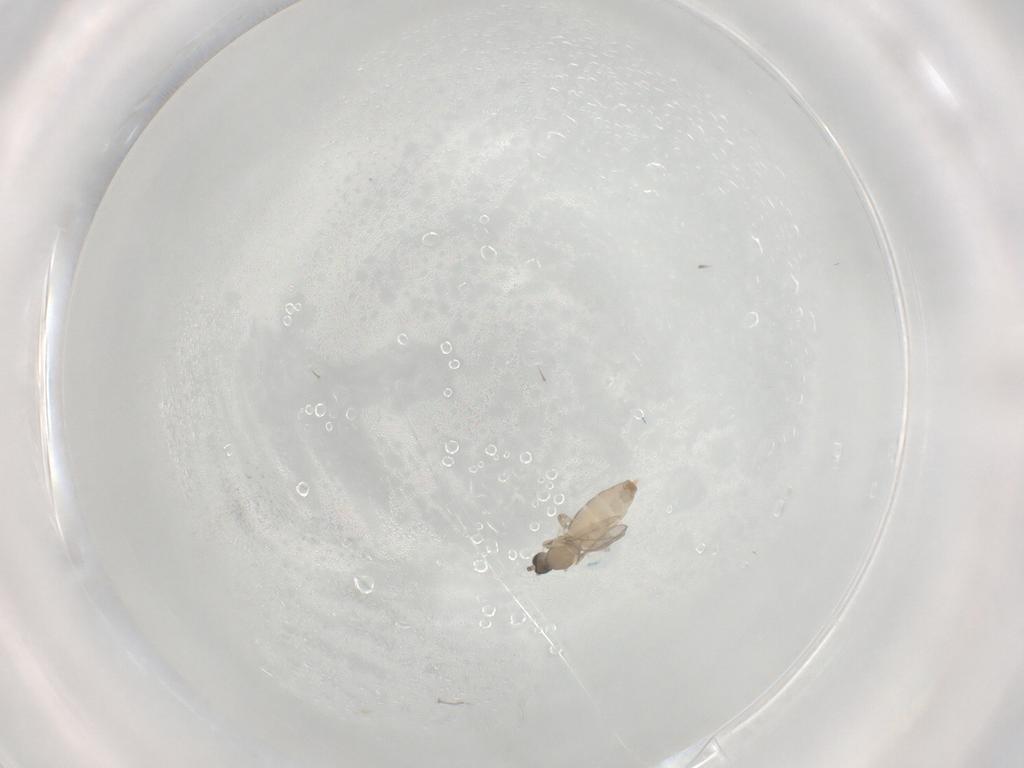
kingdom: Animalia
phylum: Arthropoda
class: Insecta
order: Diptera
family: Cecidomyiidae
